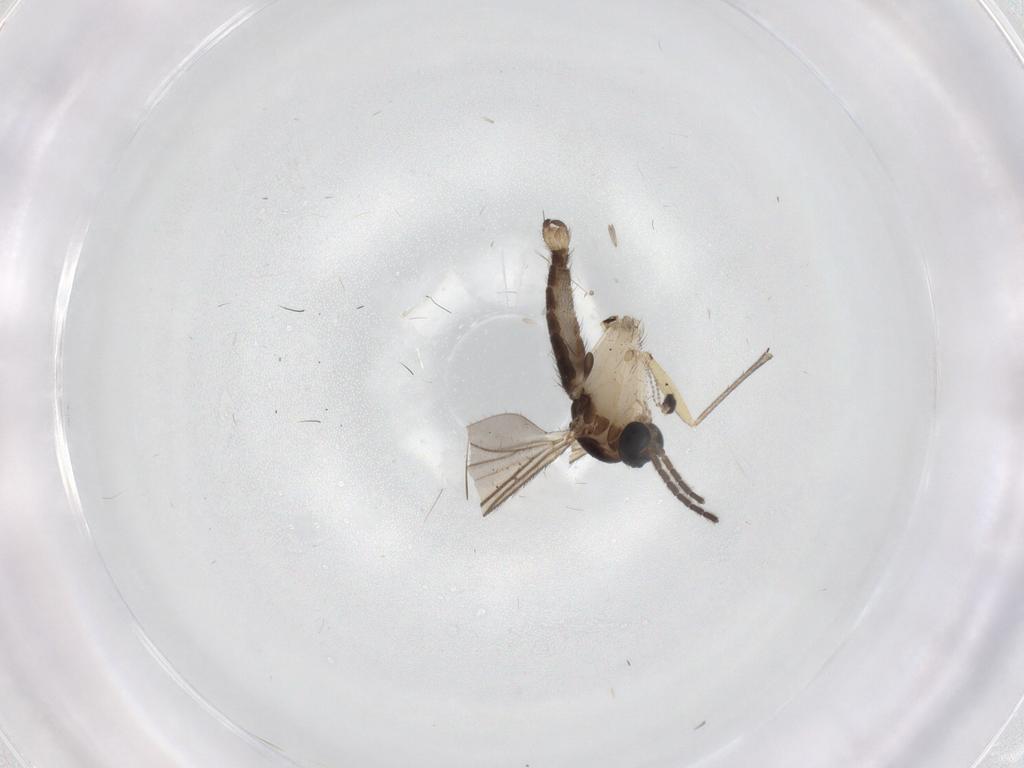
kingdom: Animalia
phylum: Arthropoda
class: Insecta
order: Diptera
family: Sciaridae
